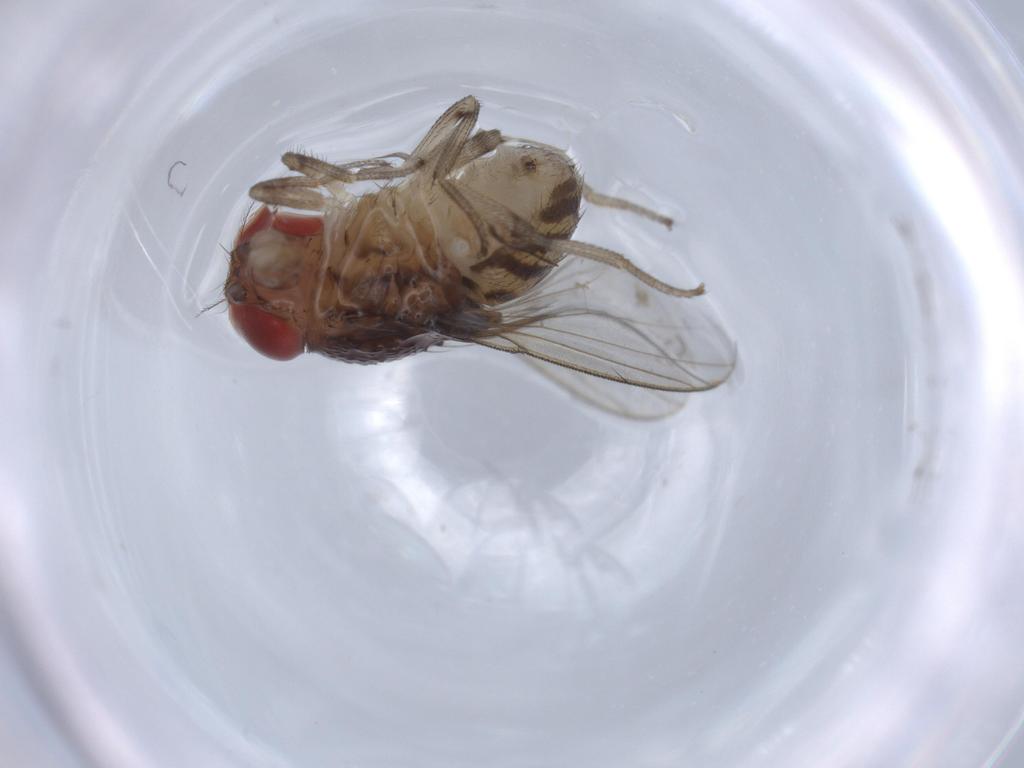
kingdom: Animalia
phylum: Arthropoda
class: Insecta
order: Diptera
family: Drosophilidae
